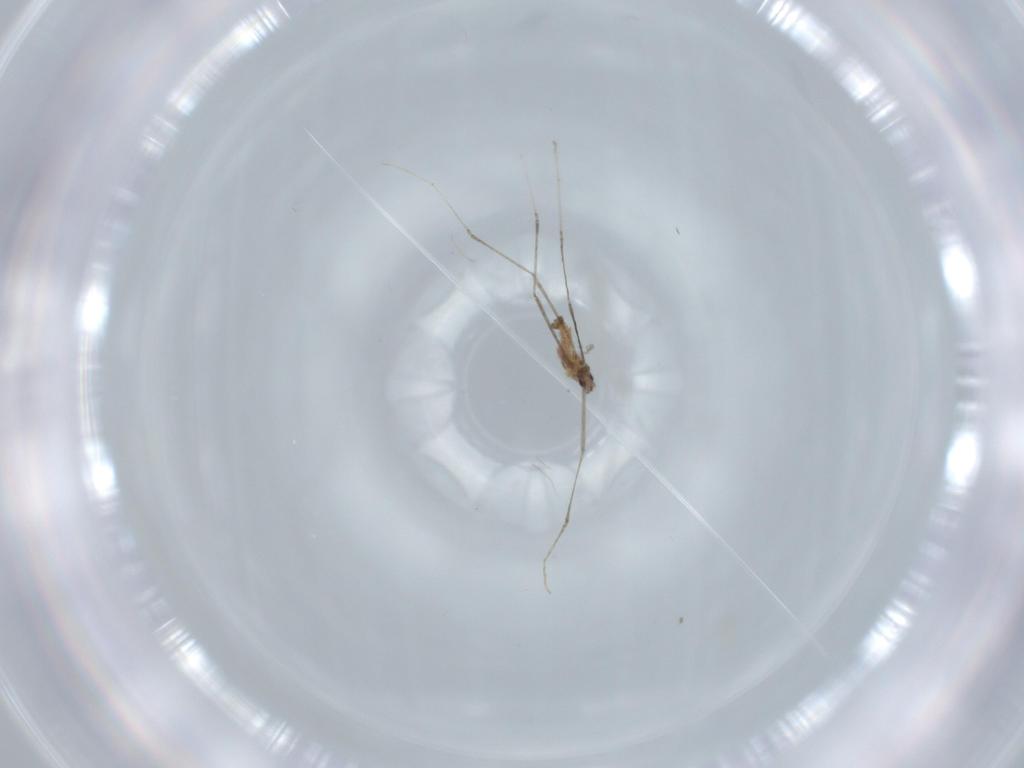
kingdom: Animalia
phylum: Arthropoda
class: Insecta
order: Diptera
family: Cecidomyiidae
